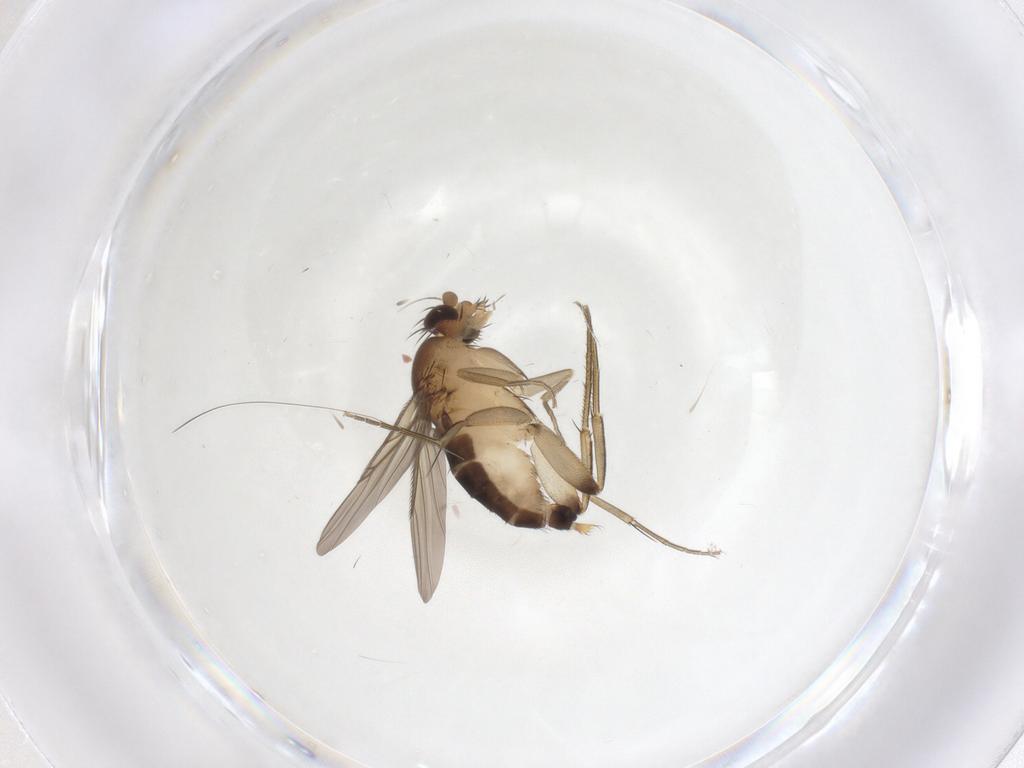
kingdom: Animalia
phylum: Arthropoda
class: Insecta
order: Diptera
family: Phoridae
